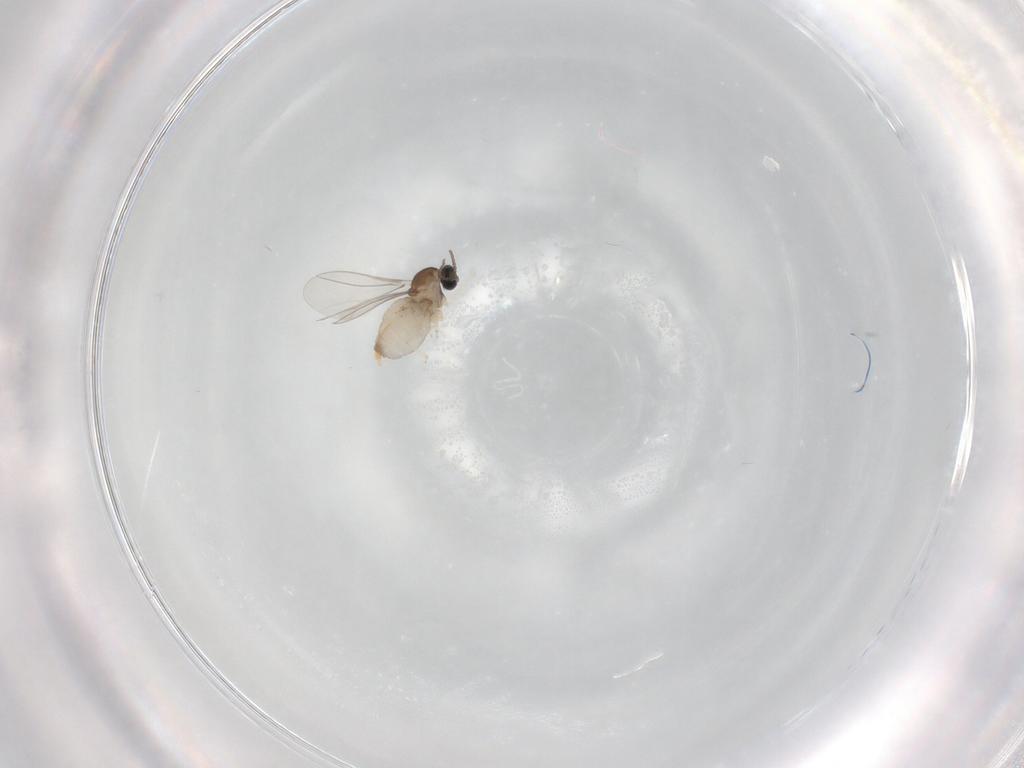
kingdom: Animalia
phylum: Arthropoda
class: Insecta
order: Diptera
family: Cecidomyiidae
